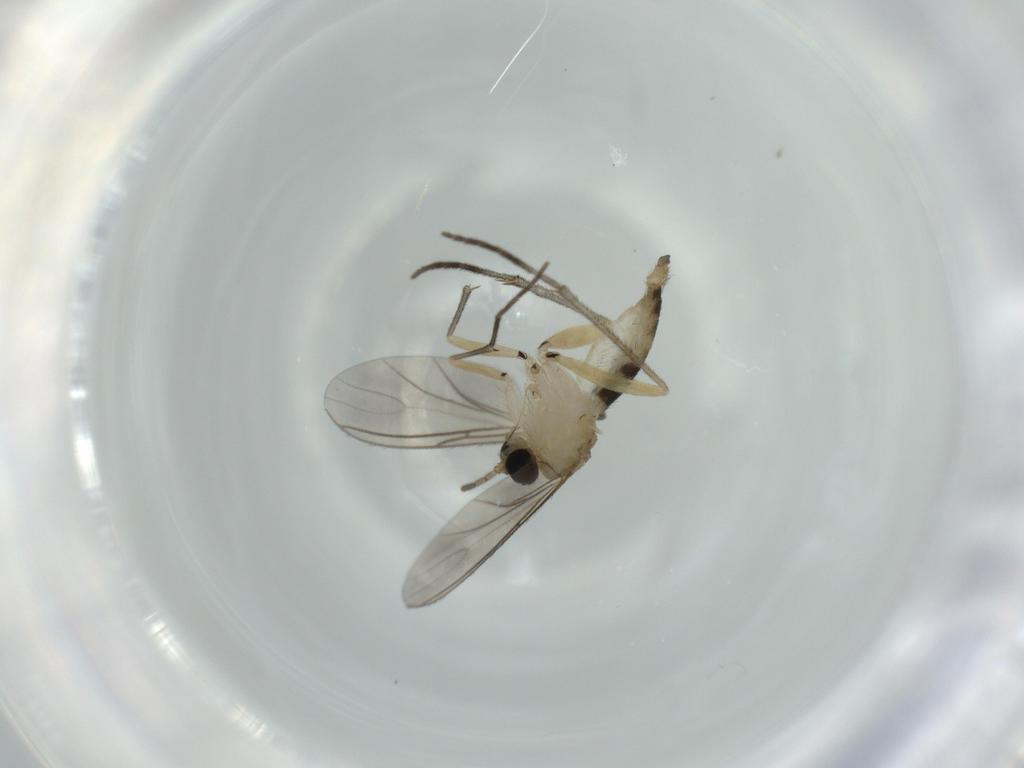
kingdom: Animalia
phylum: Arthropoda
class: Insecta
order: Diptera
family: Sciaridae
